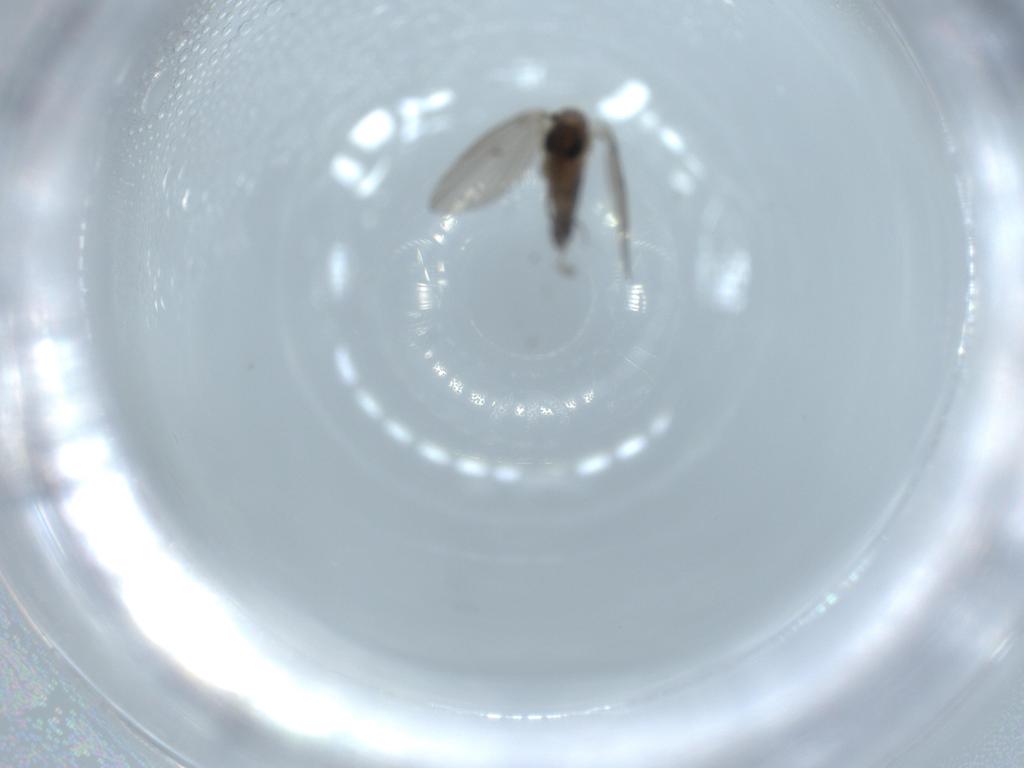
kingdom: Animalia
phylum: Arthropoda
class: Insecta
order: Diptera
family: Psychodidae
